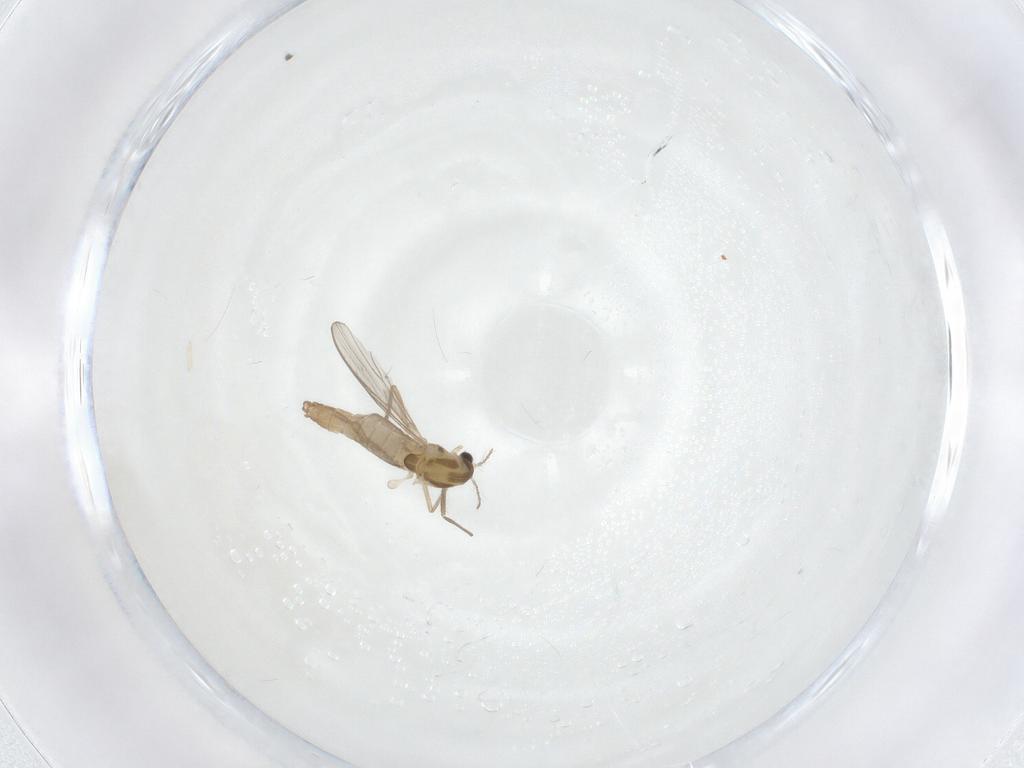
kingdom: Animalia
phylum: Arthropoda
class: Insecta
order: Diptera
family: Chironomidae
